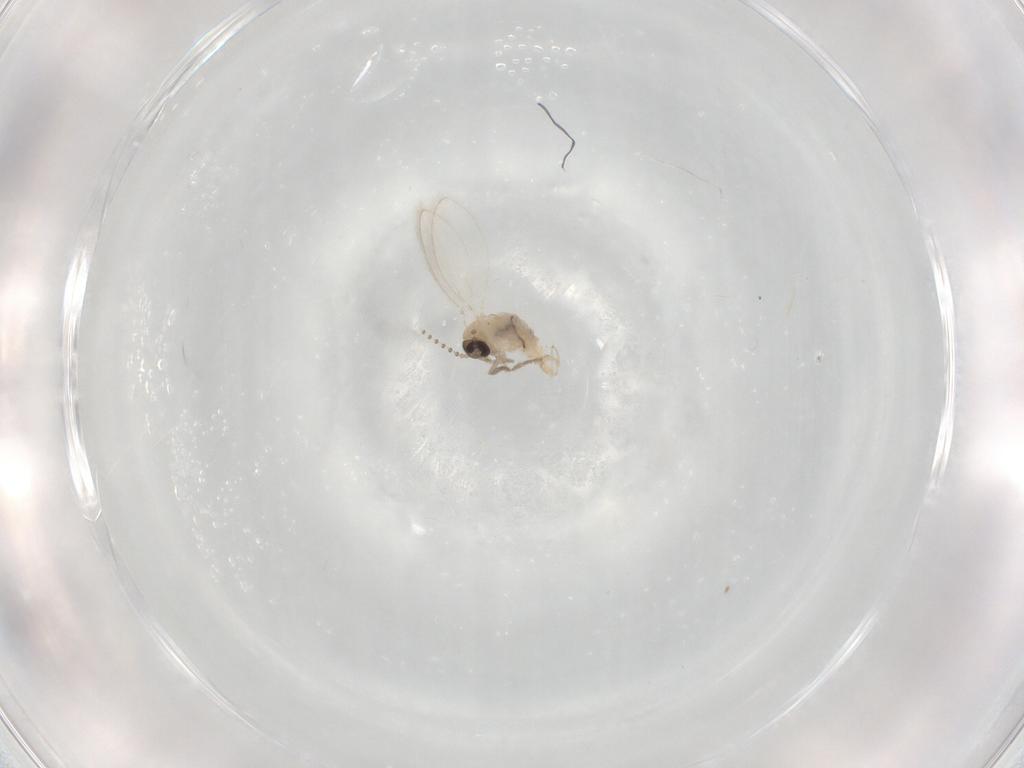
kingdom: Animalia
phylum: Arthropoda
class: Insecta
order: Diptera
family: Psychodidae
